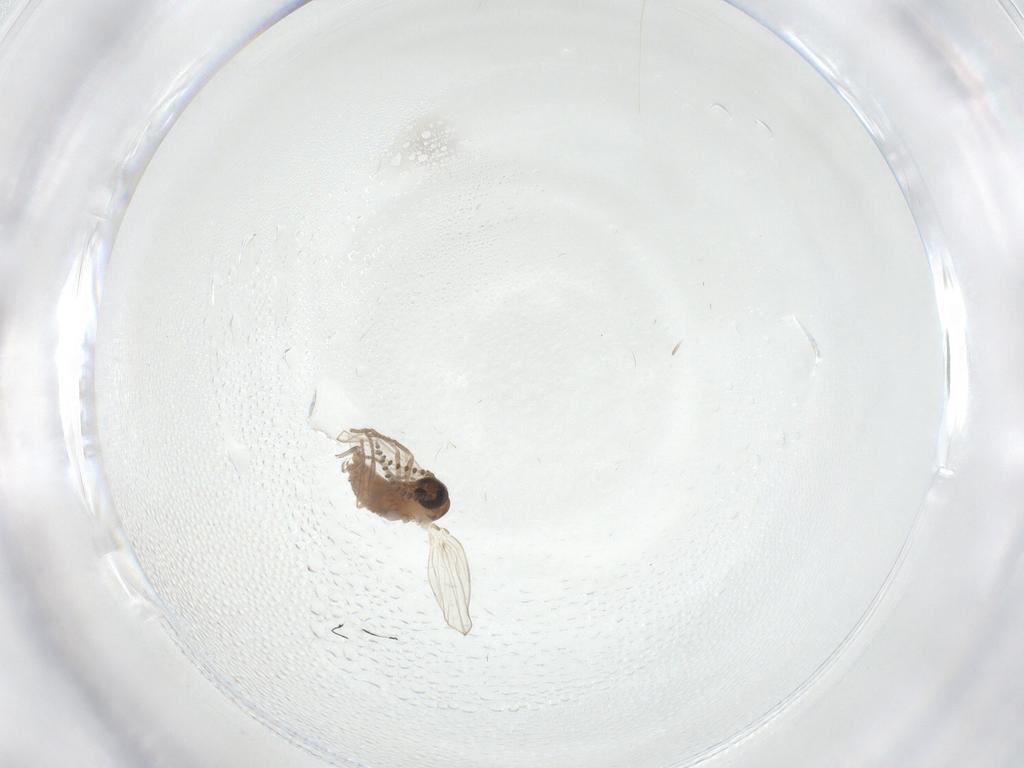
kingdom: Animalia
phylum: Arthropoda
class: Insecta
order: Diptera
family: Psychodidae
